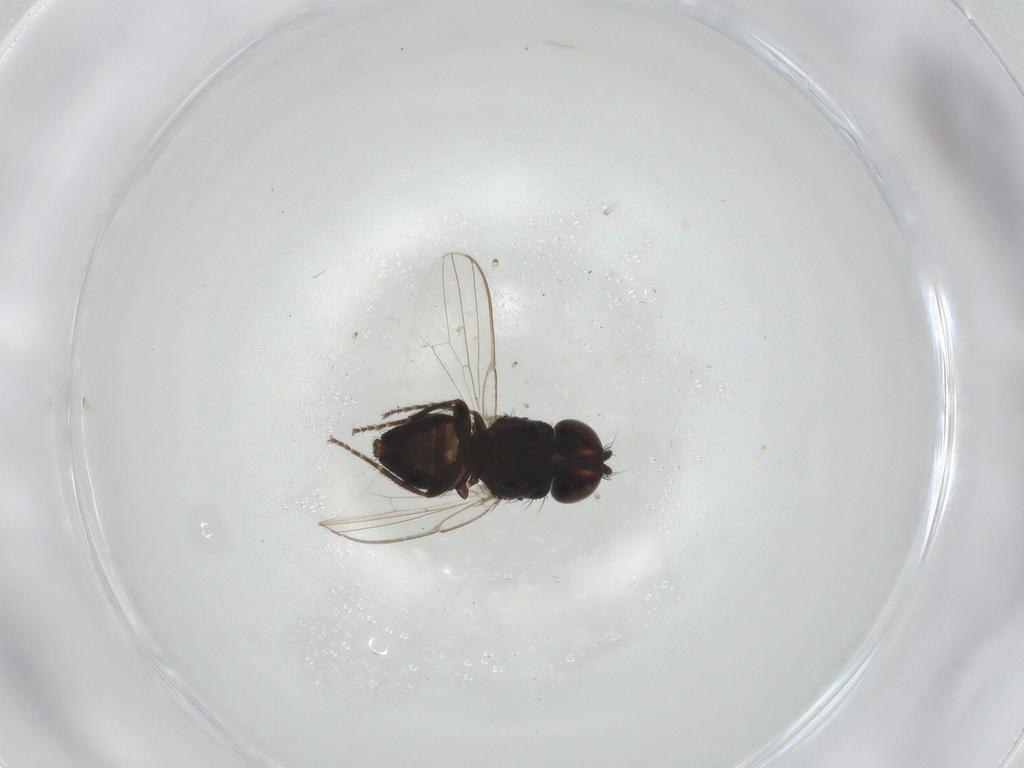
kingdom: Animalia
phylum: Arthropoda
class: Insecta
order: Diptera
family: Milichiidae
